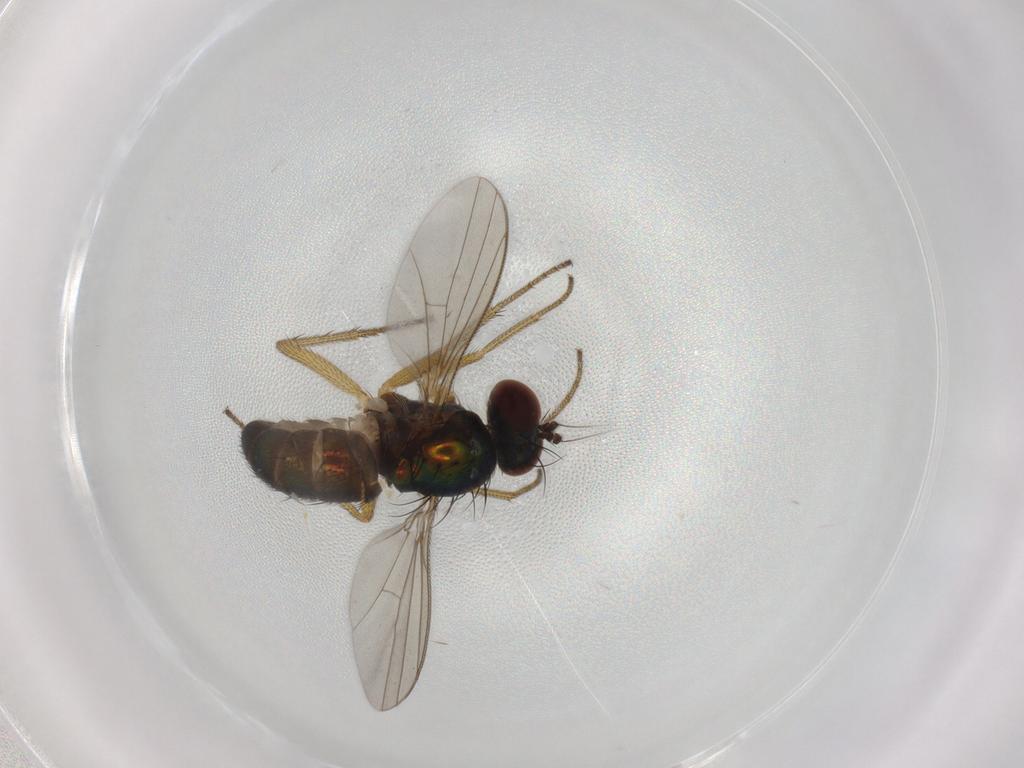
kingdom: Animalia
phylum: Arthropoda
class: Insecta
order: Diptera
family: Dolichopodidae
